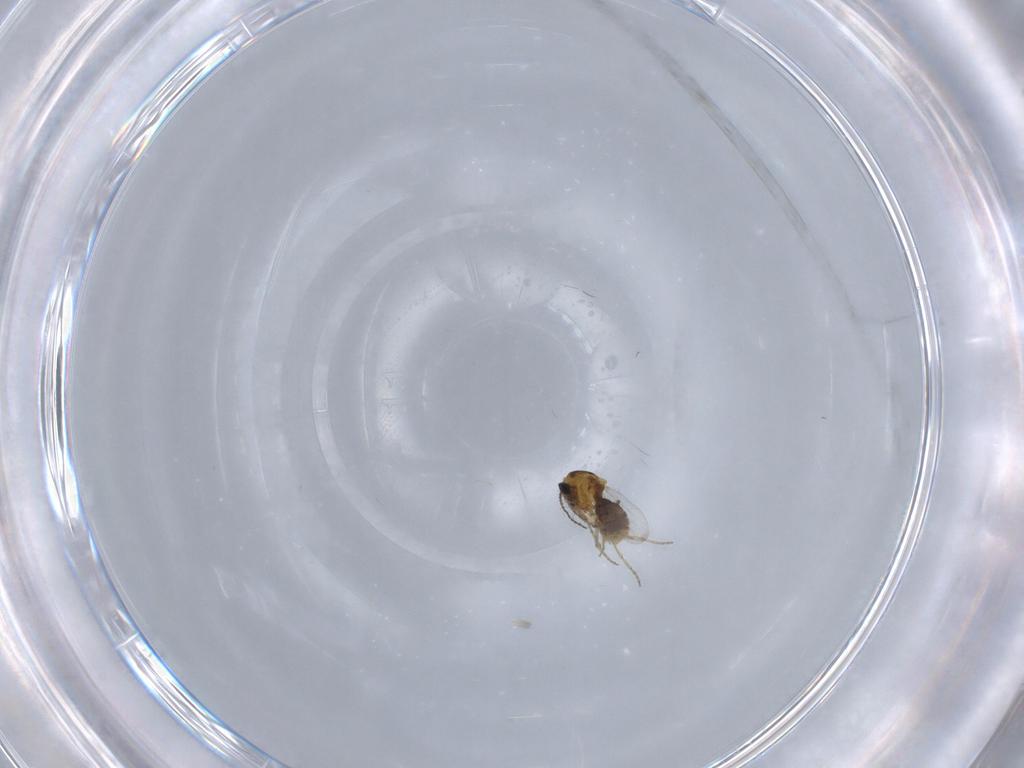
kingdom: Animalia
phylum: Arthropoda
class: Insecta
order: Diptera
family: Ceratopogonidae
